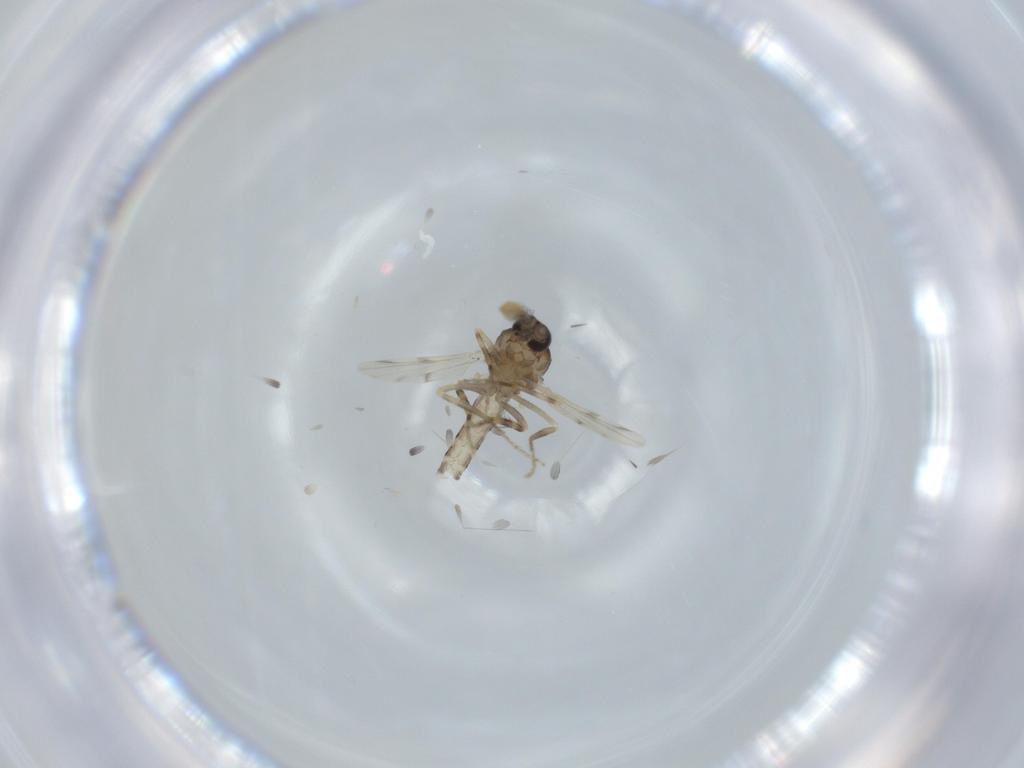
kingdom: Animalia
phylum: Arthropoda
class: Insecta
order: Diptera
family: Ceratopogonidae
